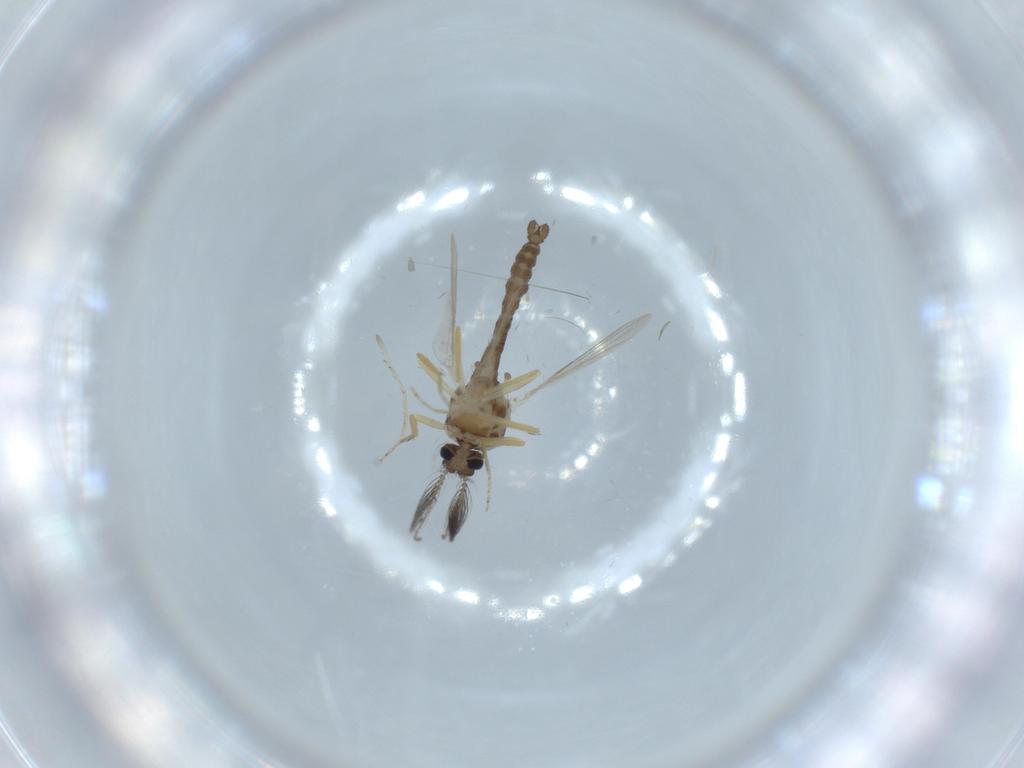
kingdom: Animalia
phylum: Arthropoda
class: Insecta
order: Diptera
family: Ceratopogonidae
